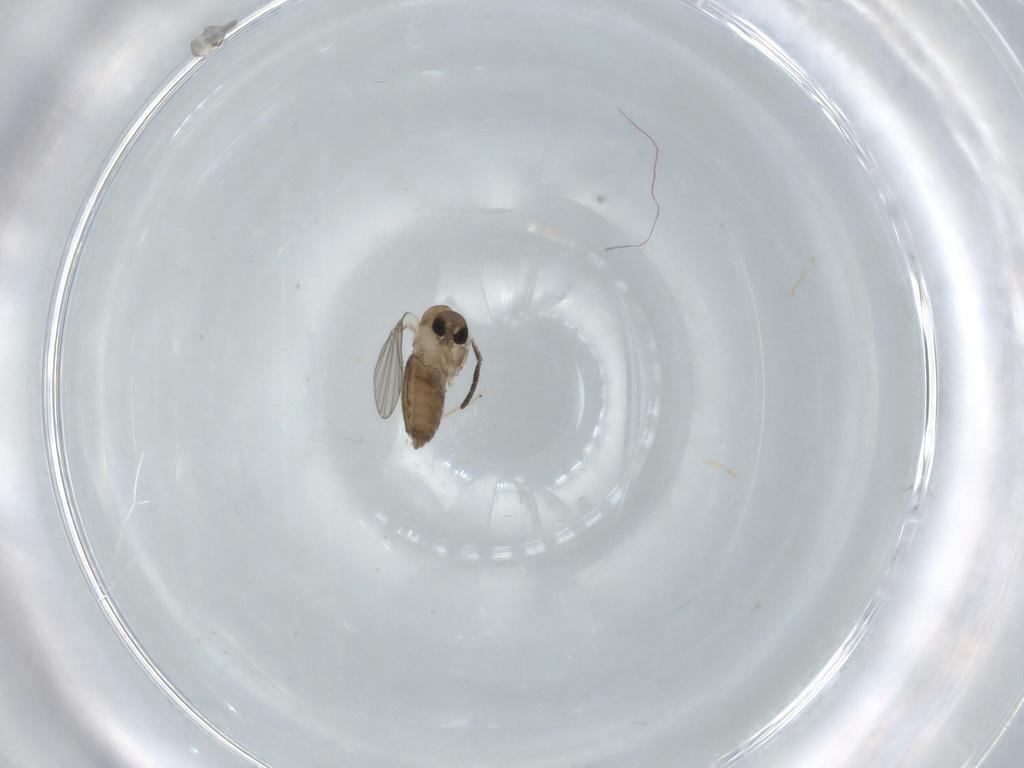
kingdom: Animalia
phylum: Arthropoda
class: Insecta
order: Diptera
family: Psychodidae
